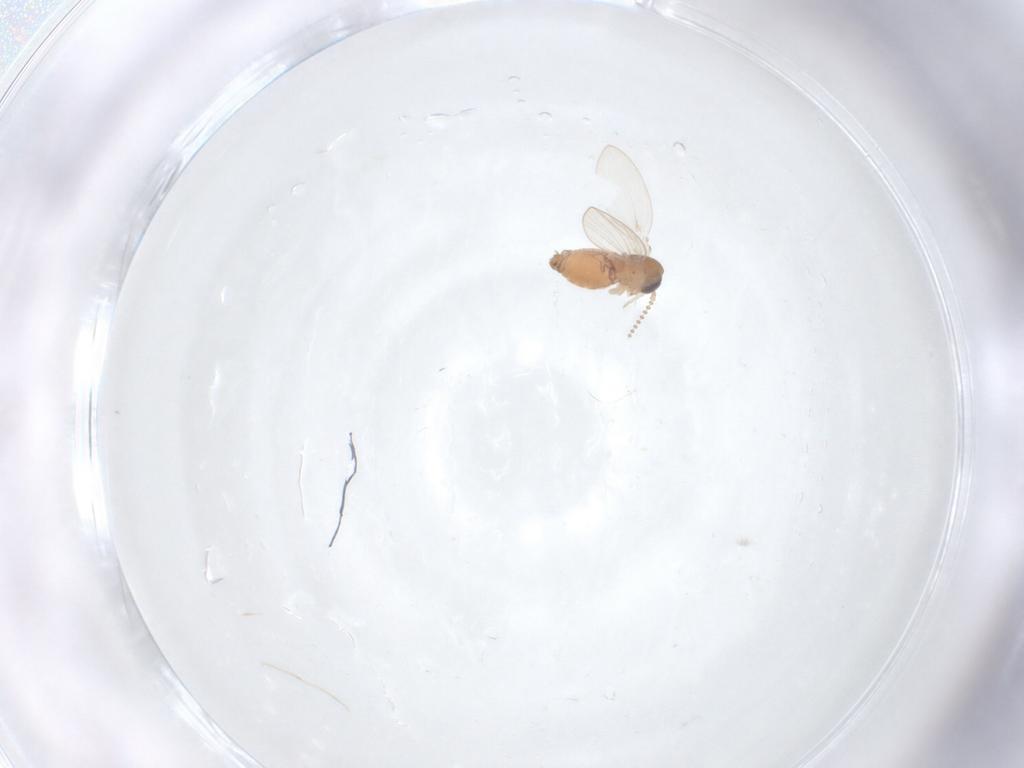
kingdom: Animalia
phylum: Arthropoda
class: Insecta
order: Diptera
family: Psychodidae
